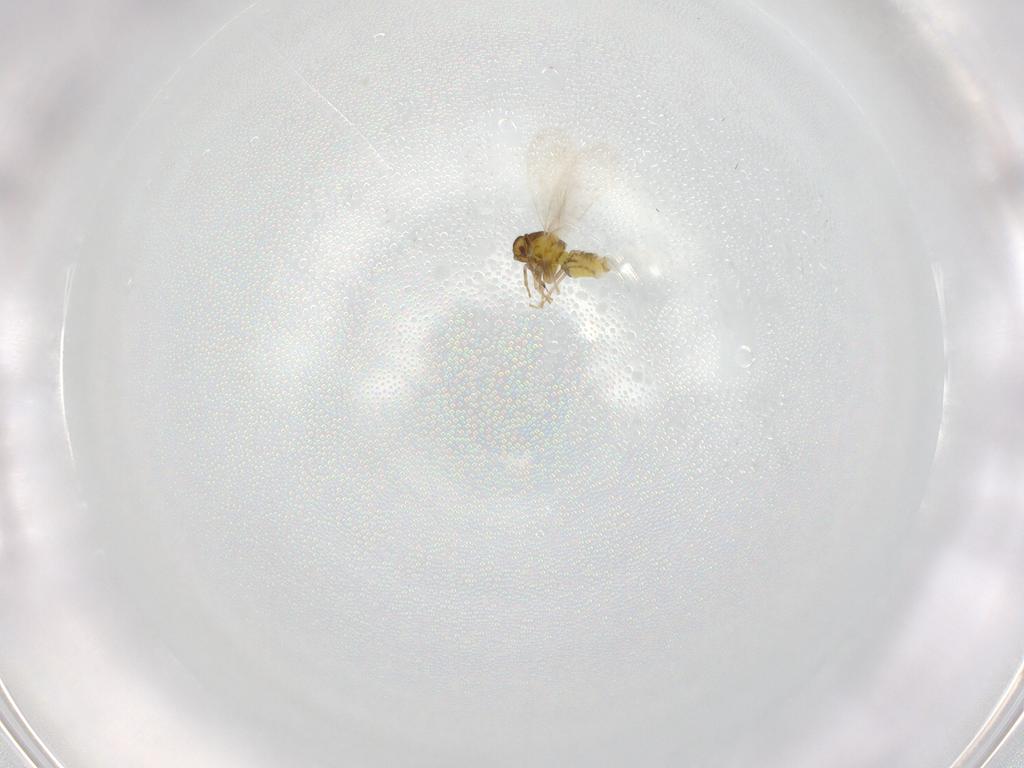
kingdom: Animalia
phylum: Arthropoda
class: Insecta
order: Hemiptera
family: Aleyrodidae
